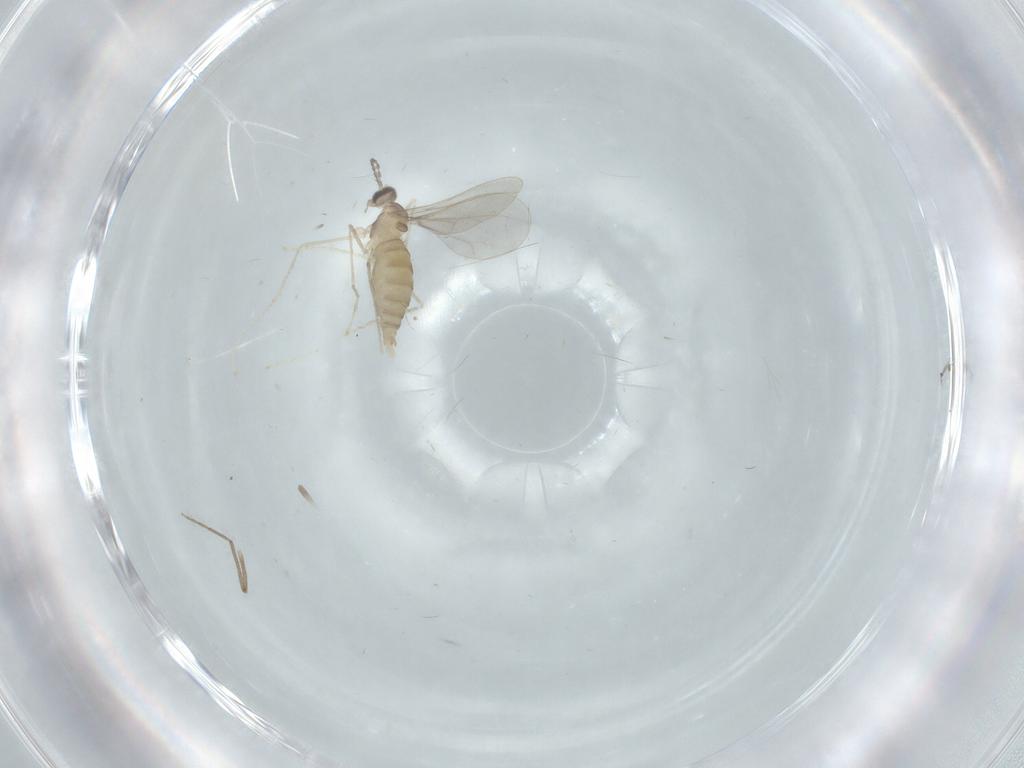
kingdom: Animalia
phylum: Arthropoda
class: Insecta
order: Diptera
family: Cecidomyiidae
